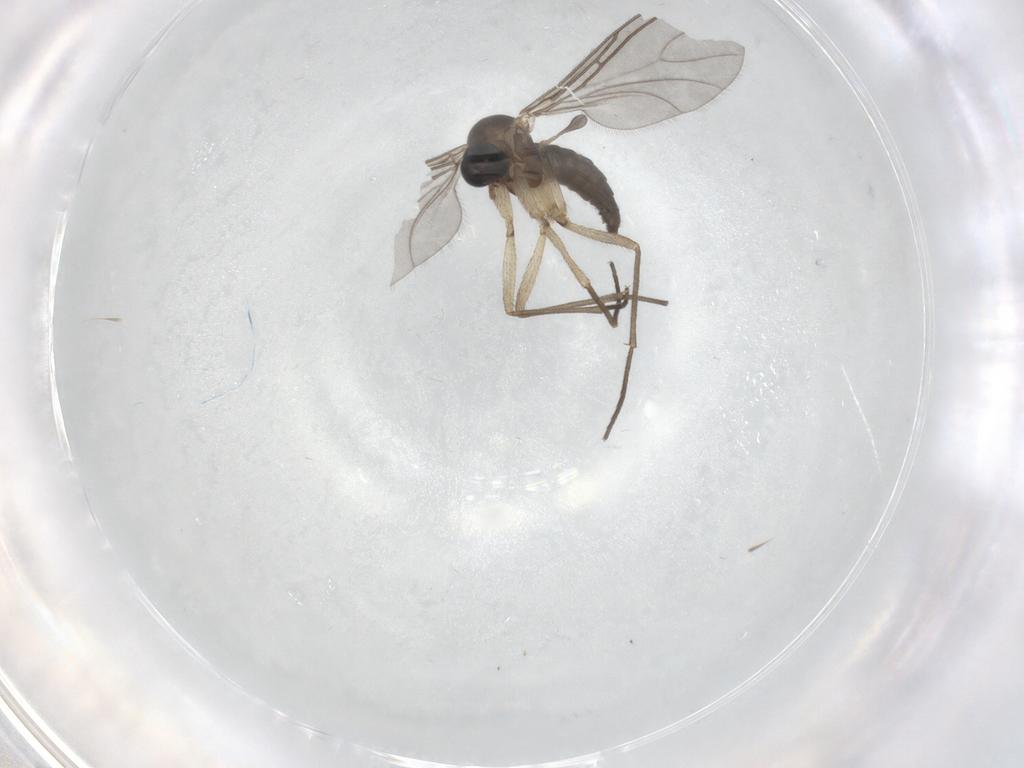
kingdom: Animalia
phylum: Arthropoda
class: Insecta
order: Diptera
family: Sciaridae
